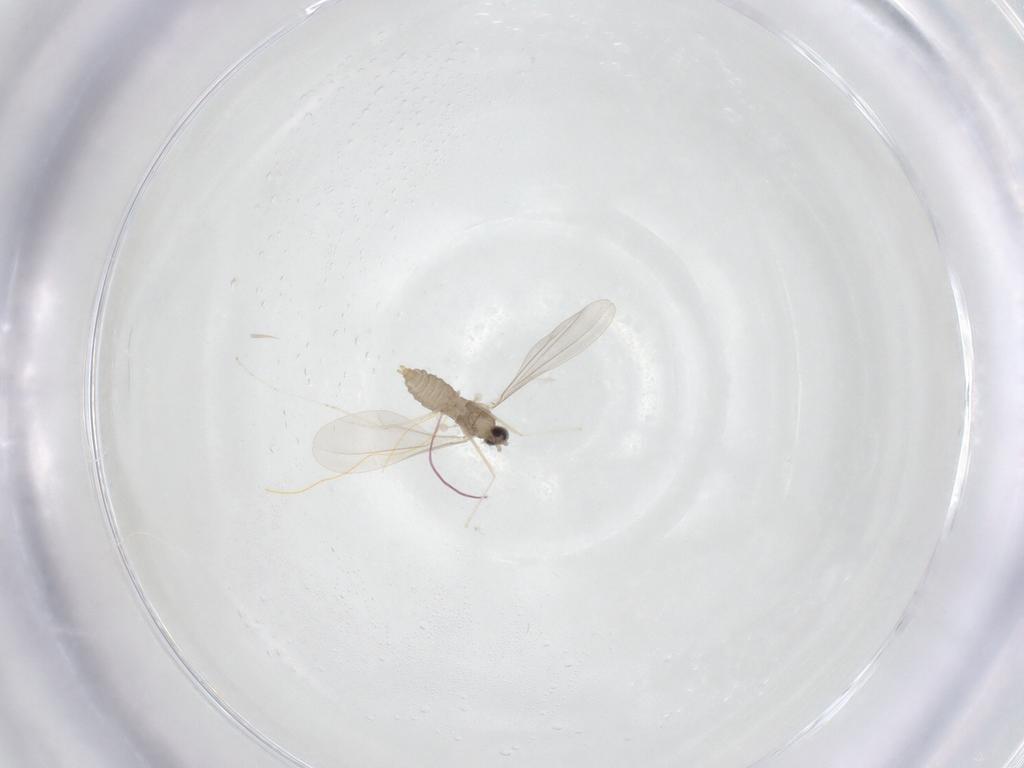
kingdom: Animalia
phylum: Arthropoda
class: Insecta
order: Diptera
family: Cecidomyiidae
